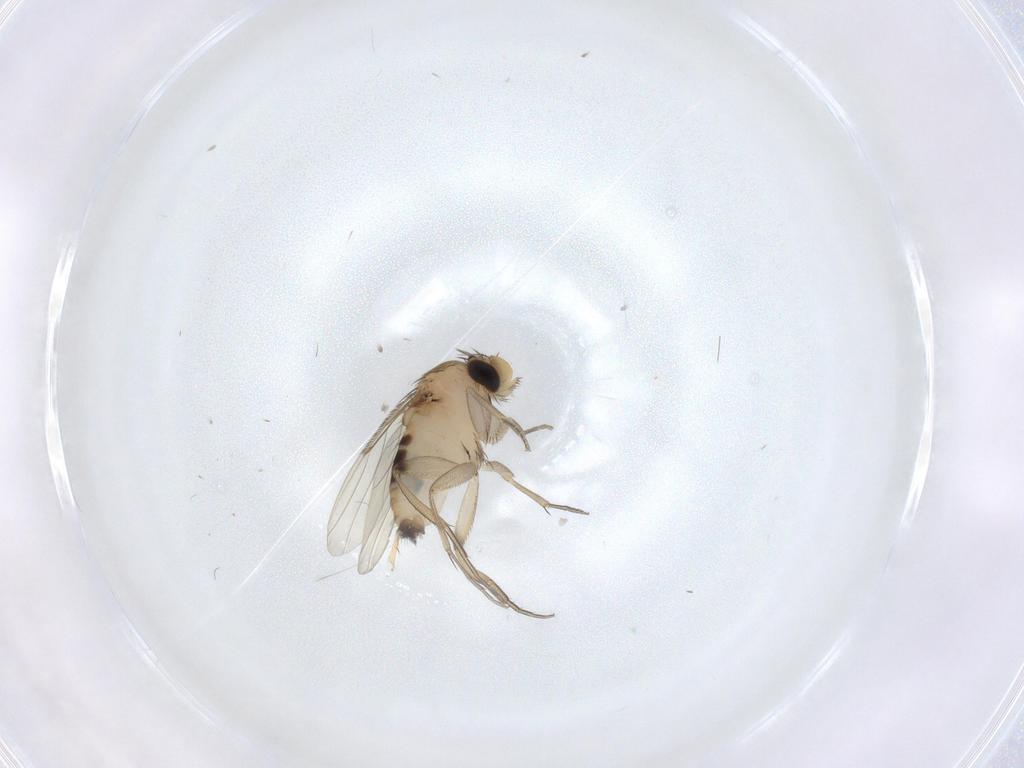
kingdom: Animalia
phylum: Arthropoda
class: Insecta
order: Diptera
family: Phoridae
